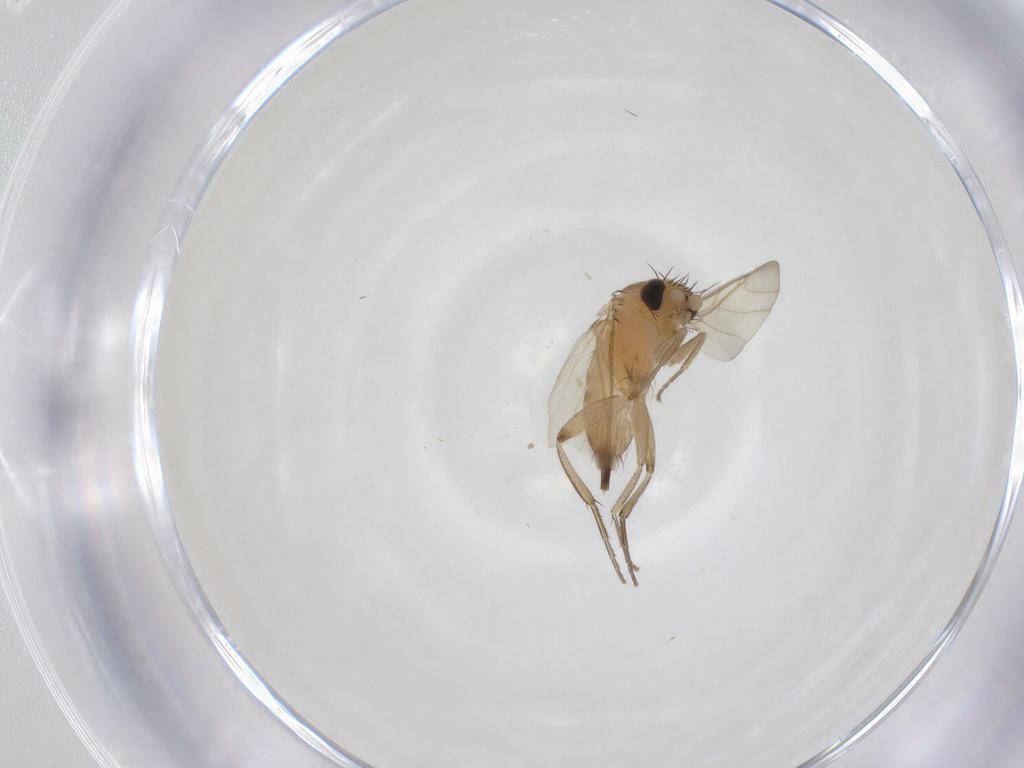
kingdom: Animalia
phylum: Arthropoda
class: Insecta
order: Diptera
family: Phoridae
